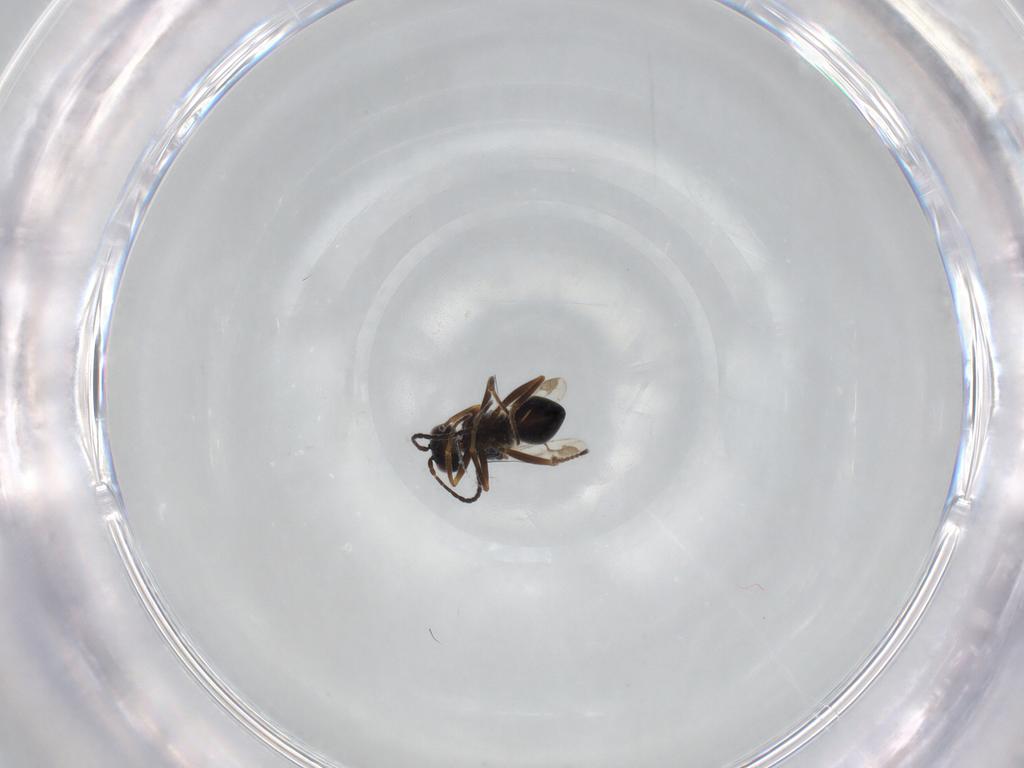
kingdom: Animalia
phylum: Arthropoda
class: Insecta
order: Hymenoptera
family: Figitidae
